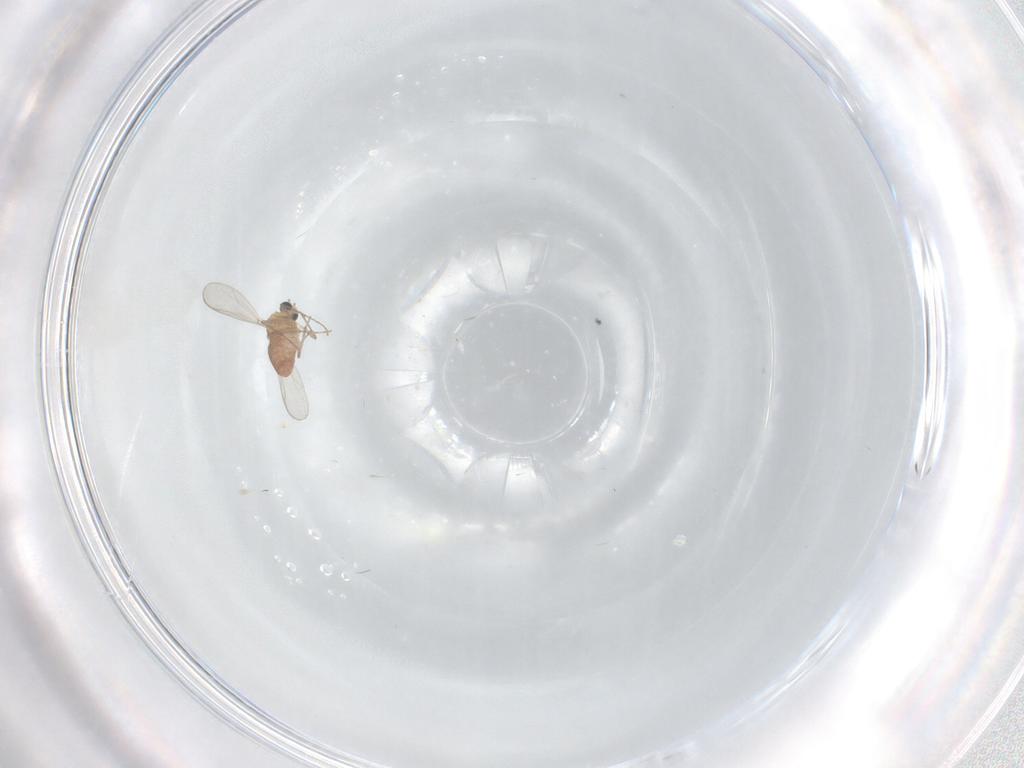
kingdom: Animalia
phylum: Arthropoda
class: Insecta
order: Diptera
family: Chironomidae
